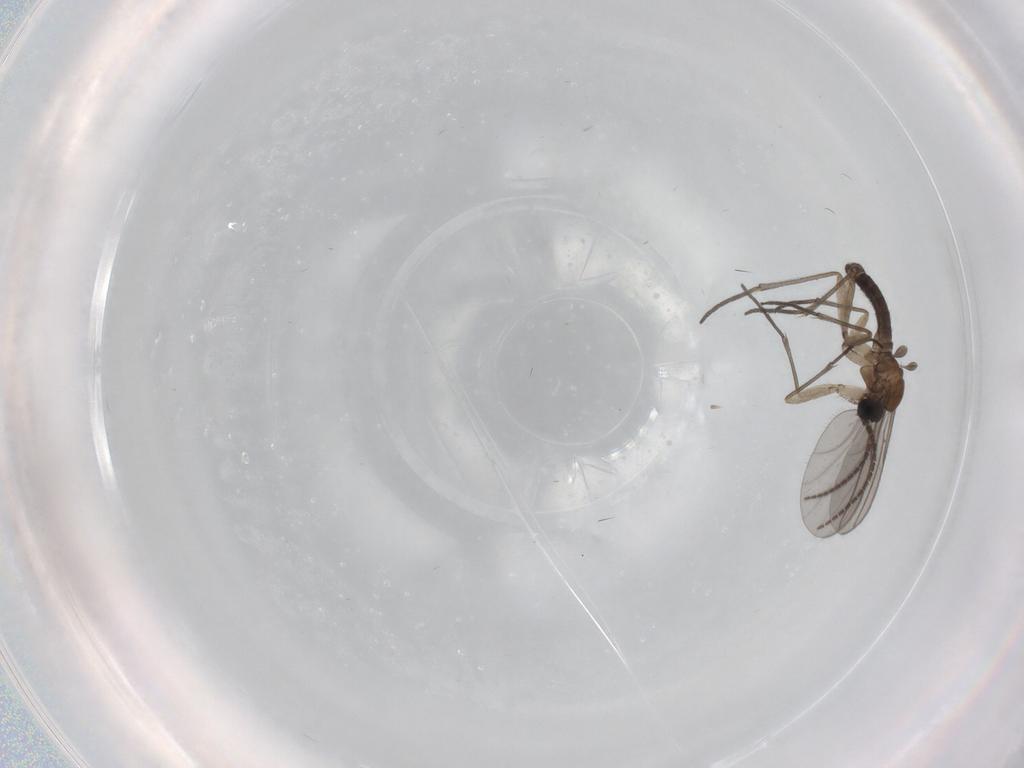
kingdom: Animalia
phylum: Arthropoda
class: Insecta
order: Diptera
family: Sciaridae
